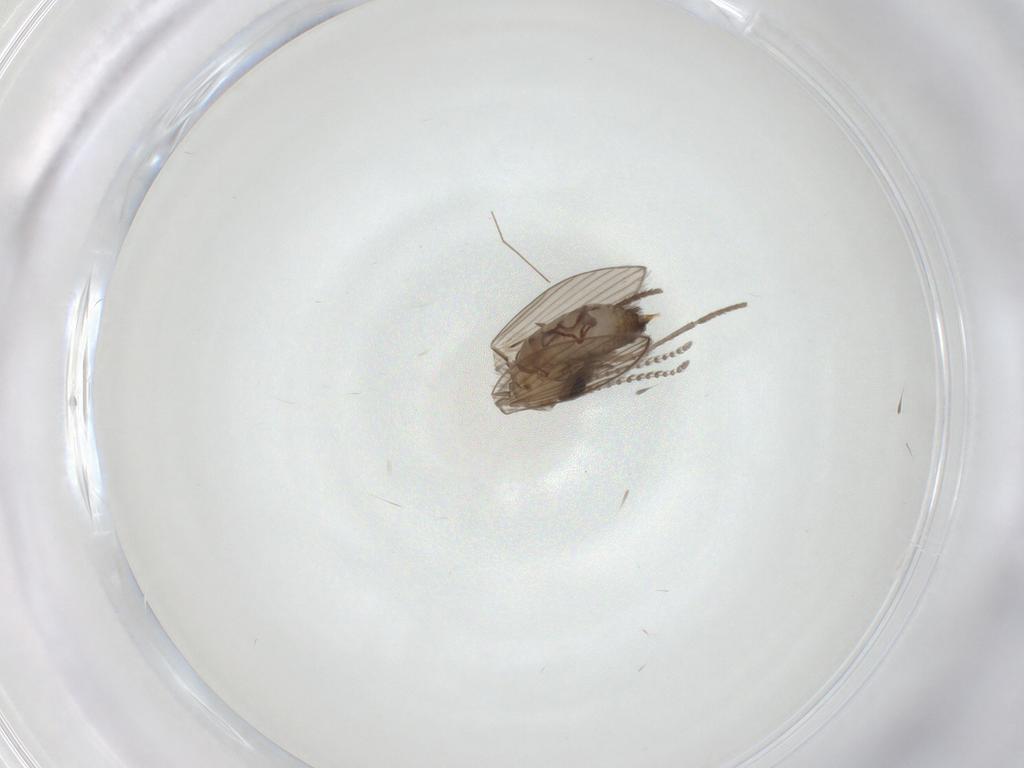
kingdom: Animalia
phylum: Arthropoda
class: Insecta
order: Diptera
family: Psychodidae
